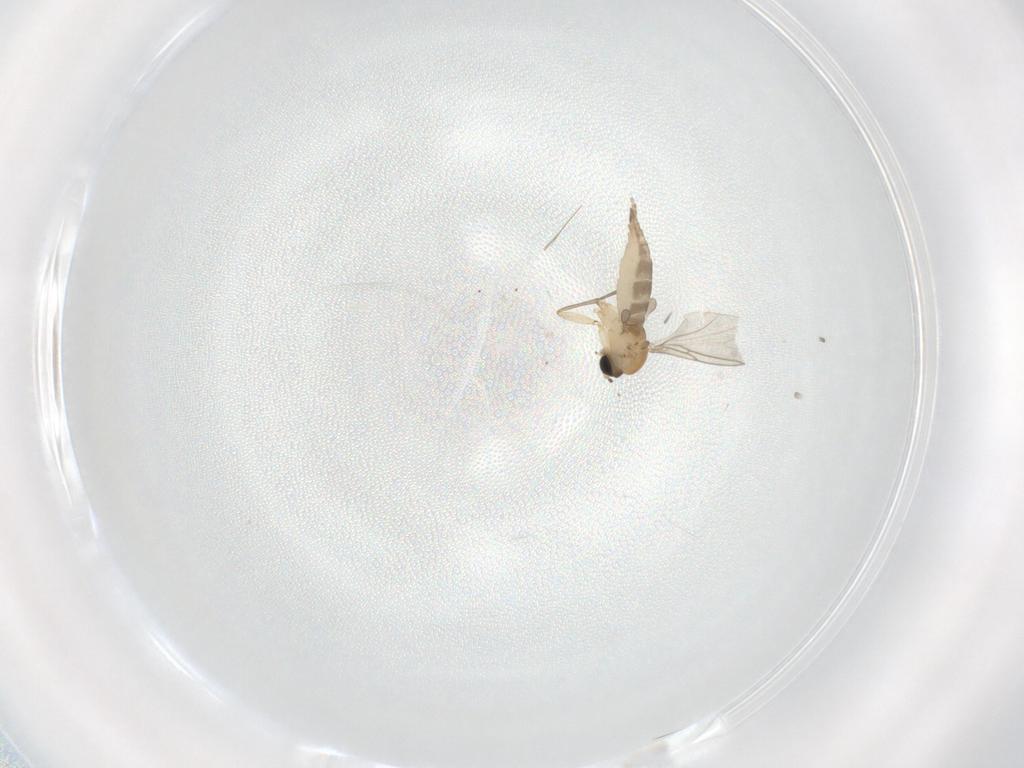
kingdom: Animalia
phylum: Arthropoda
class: Insecta
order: Diptera
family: Sciaridae
